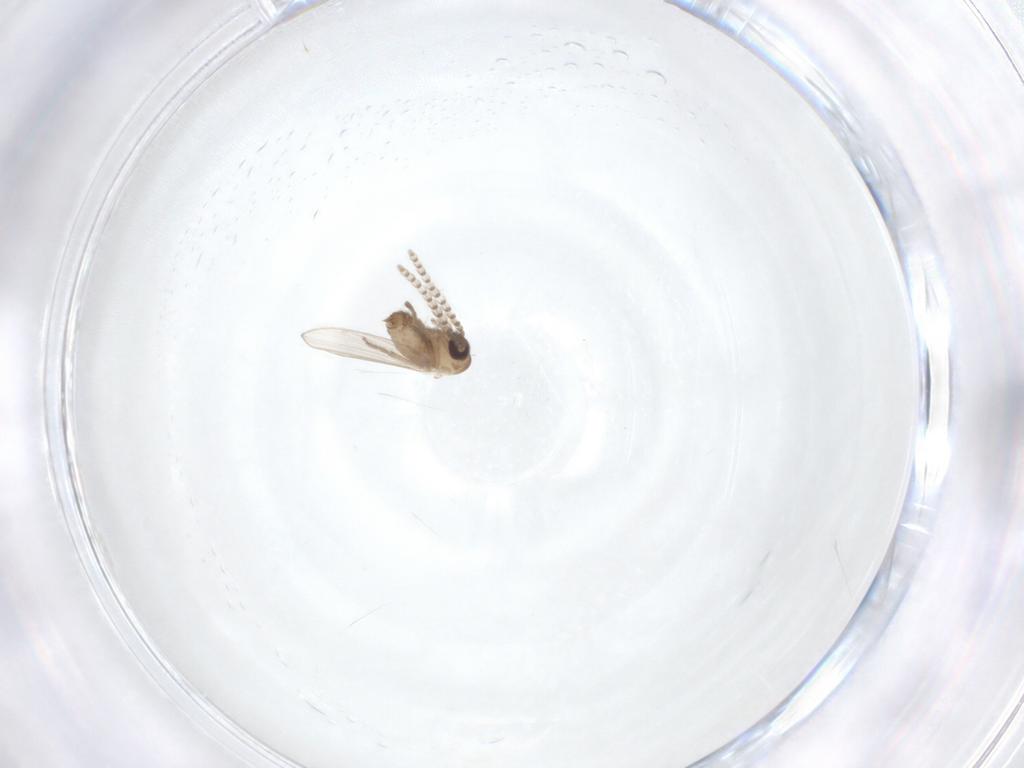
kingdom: Animalia
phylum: Arthropoda
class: Insecta
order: Diptera
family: Psychodidae
